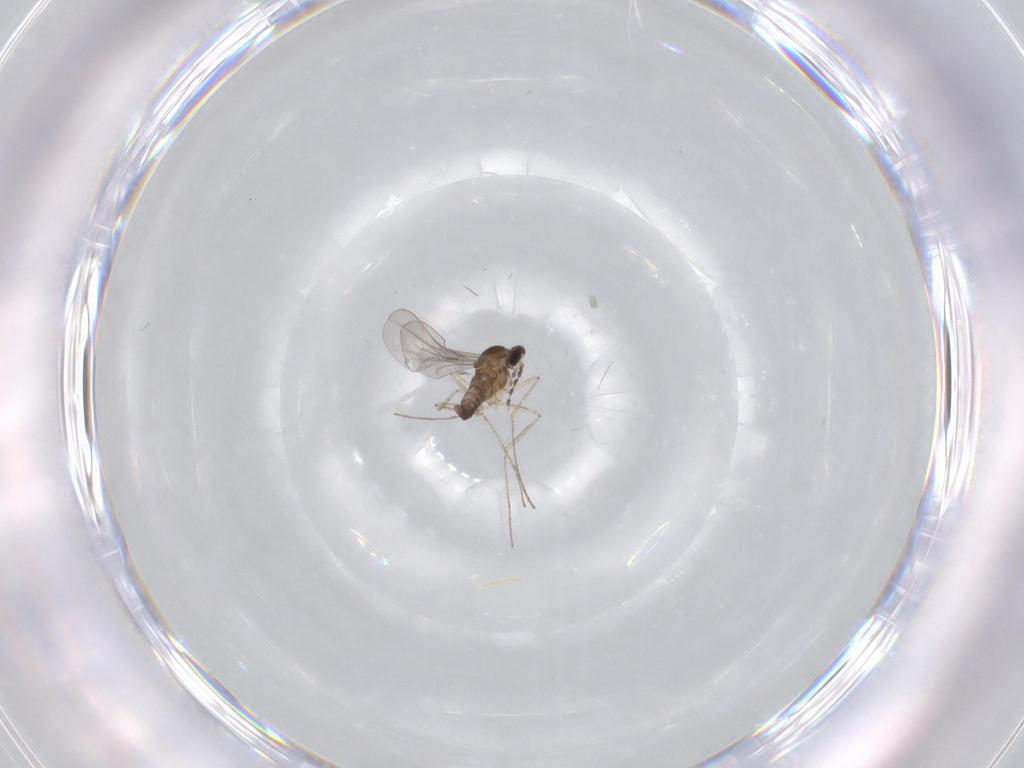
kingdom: Animalia
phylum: Arthropoda
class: Insecta
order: Diptera
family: Cecidomyiidae
